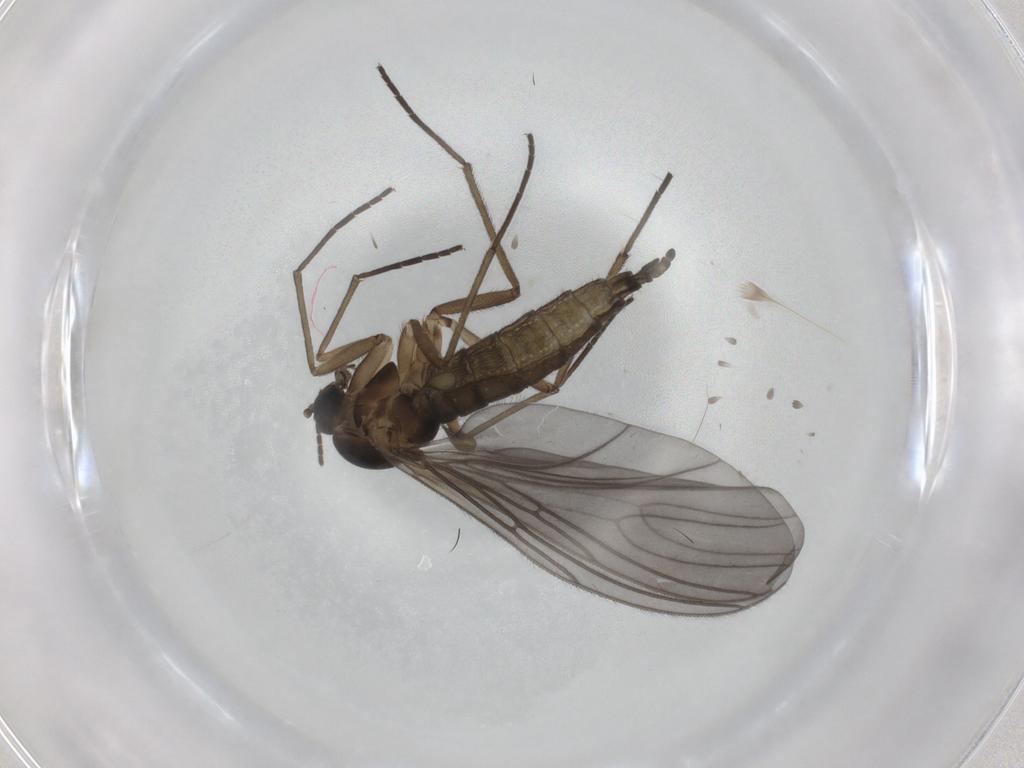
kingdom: Animalia
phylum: Arthropoda
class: Insecta
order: Diptera
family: Sciaridae
